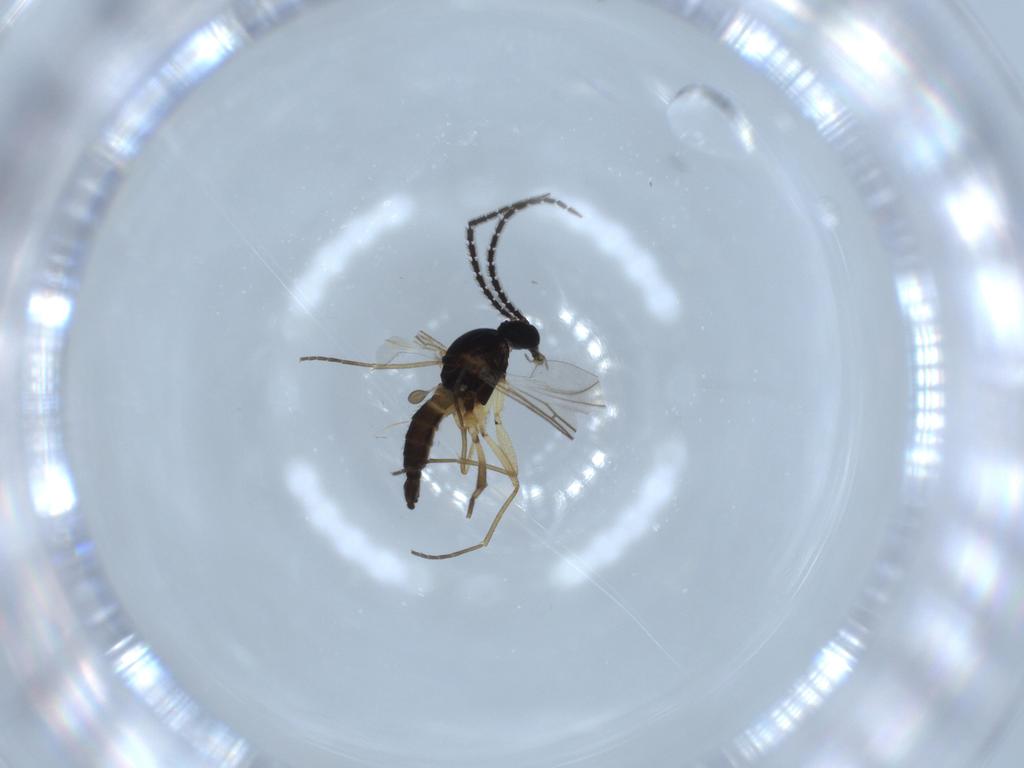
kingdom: Animalia
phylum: Arthropoda
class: Insecta
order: Diptera
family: Sciaridae
